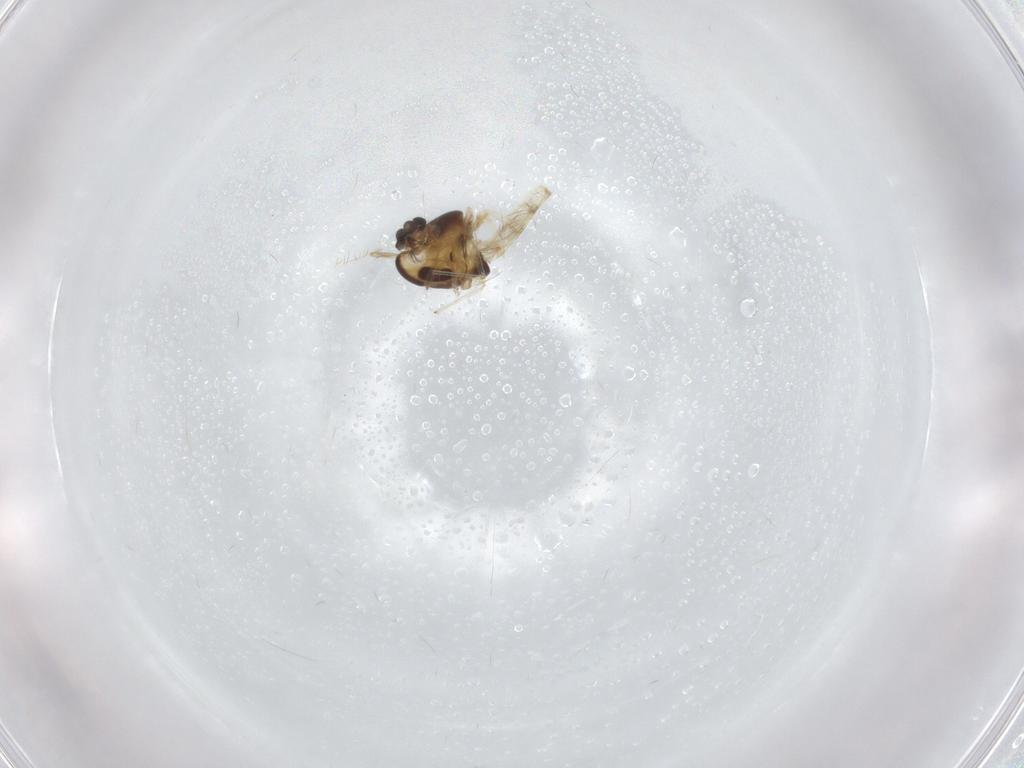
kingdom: Animalia
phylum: Arthropoda
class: Insecta
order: Diptera
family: Chironomidae
